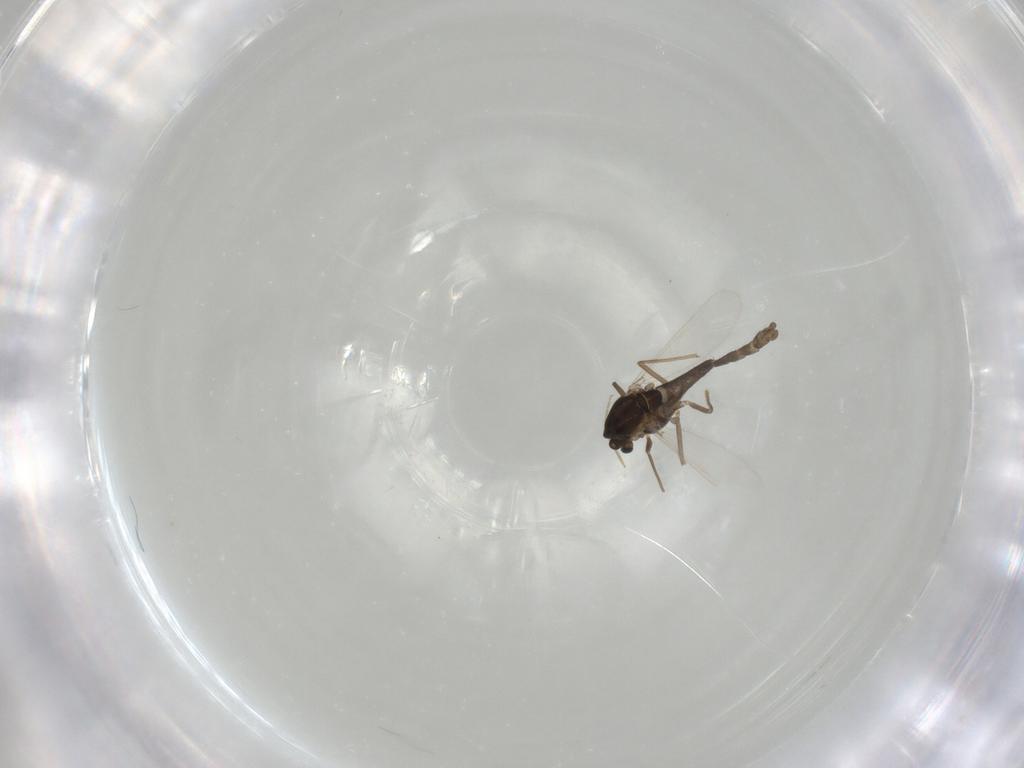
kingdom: Animalia
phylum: Arthropoda
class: Insecta
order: Diptera
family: Chironomidae
